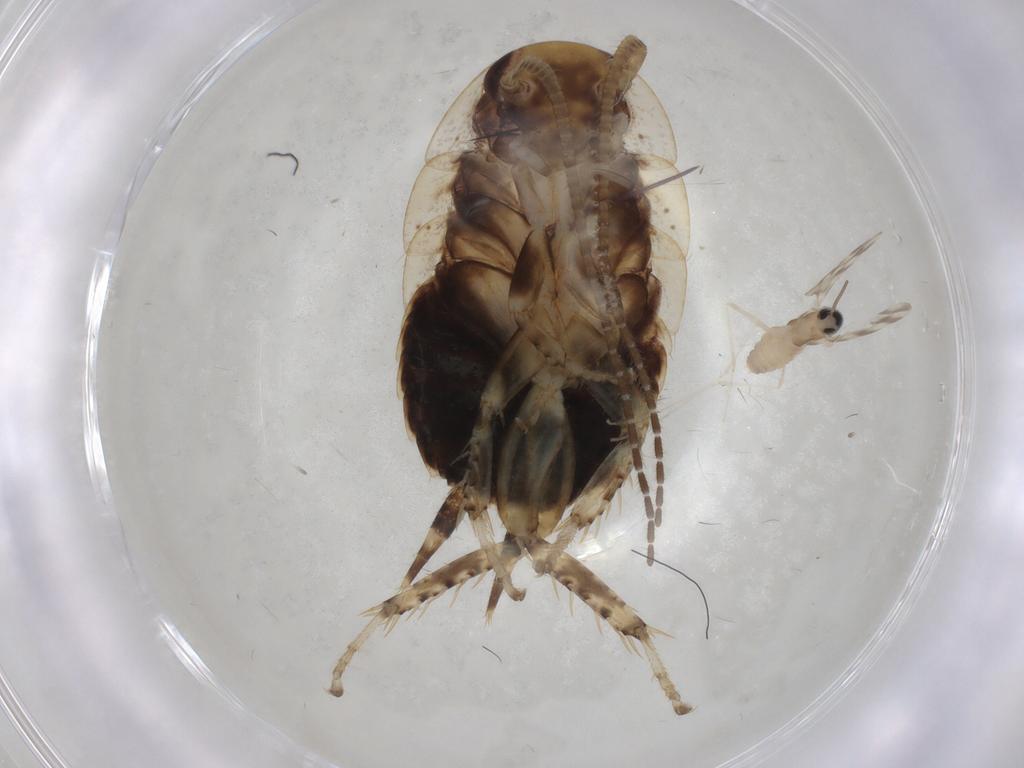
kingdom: Animalia
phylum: Arthropoda
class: Insecta
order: Diptera
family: Cecidomyiidae
